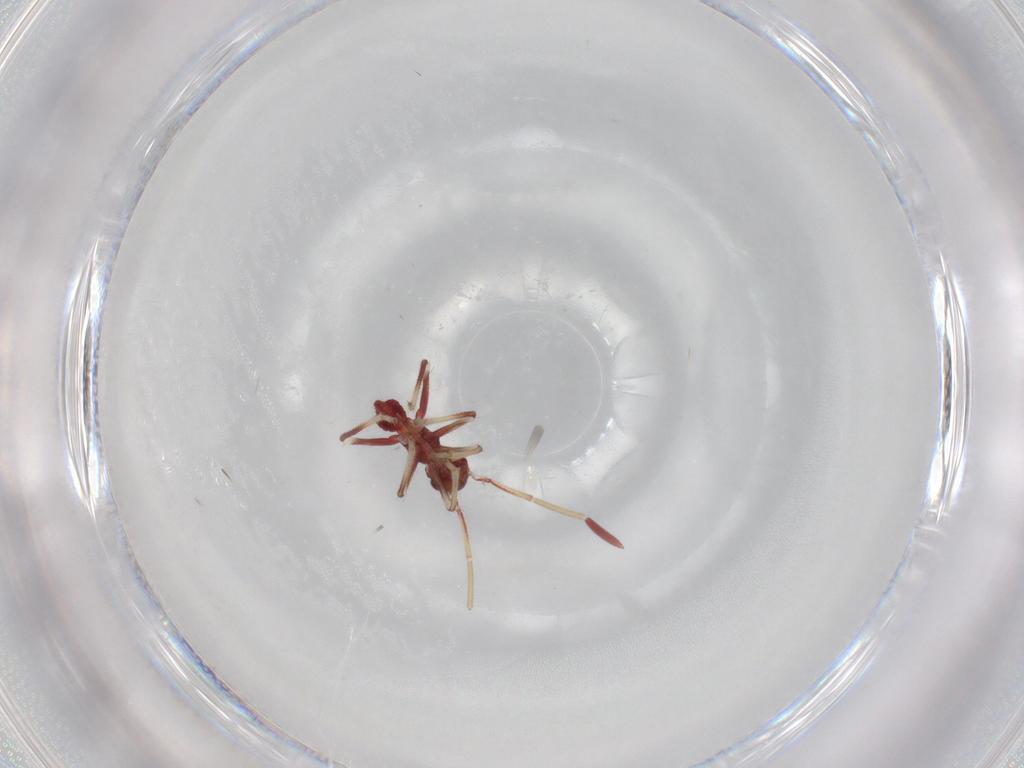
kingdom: Animalia
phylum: Arthropoda
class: Insecta
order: Hemiptera
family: Miridae
